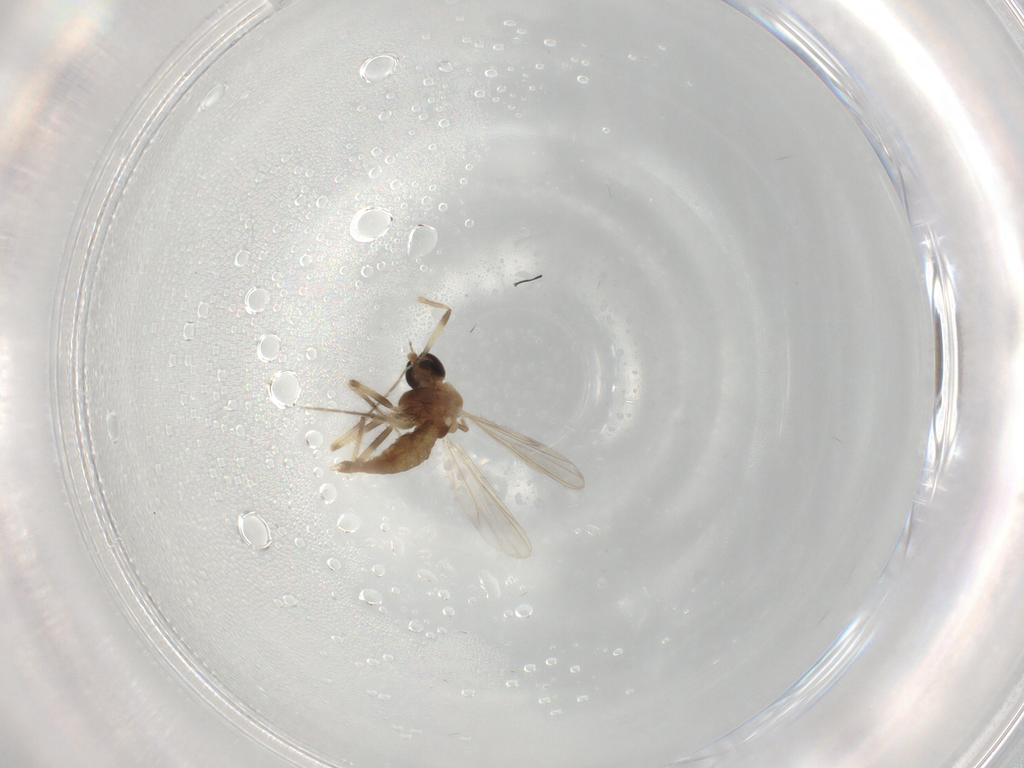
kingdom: Animalia
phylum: Arthropoda
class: Insecta
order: Diptera
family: Chironomidae
